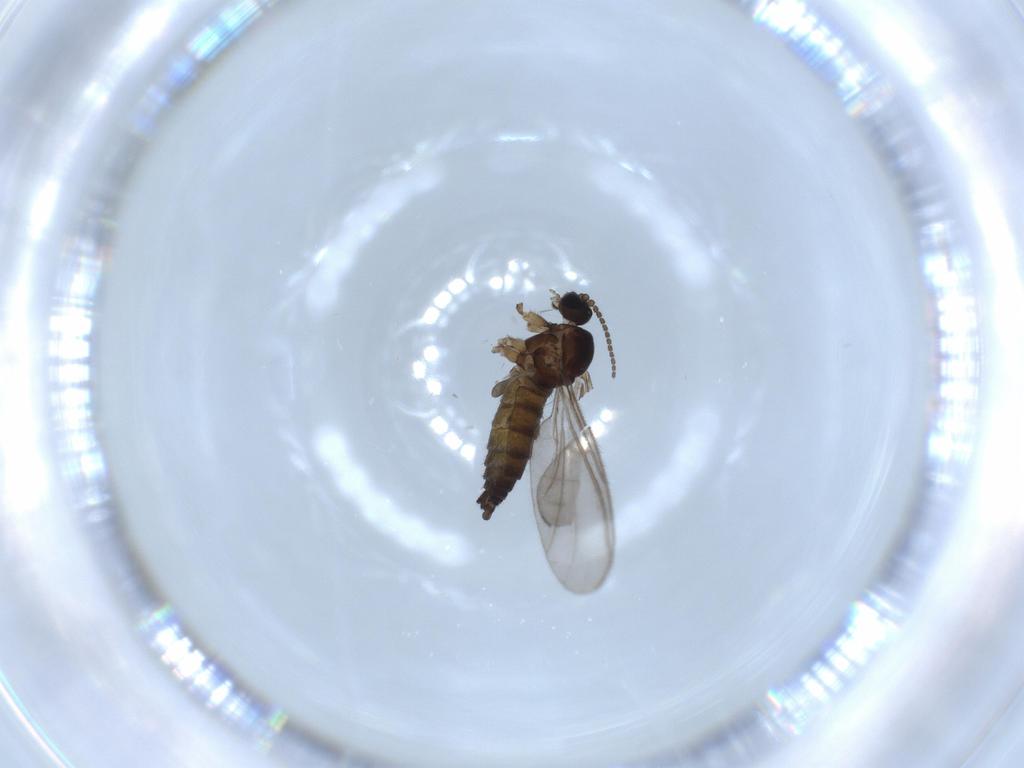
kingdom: Animalia
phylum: Arthropoda
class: Insecta
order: Diptera
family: Sciaridae
